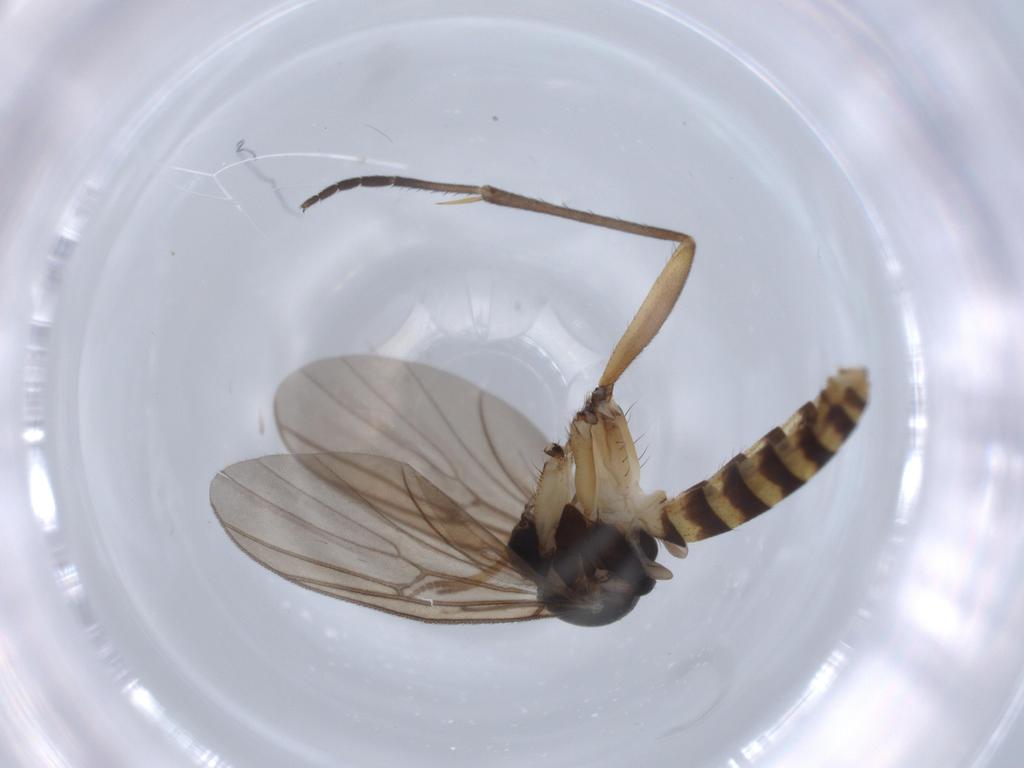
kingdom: Animalia
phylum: Arthropoda
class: Insecta
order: Diptera
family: Mycetophilidae
